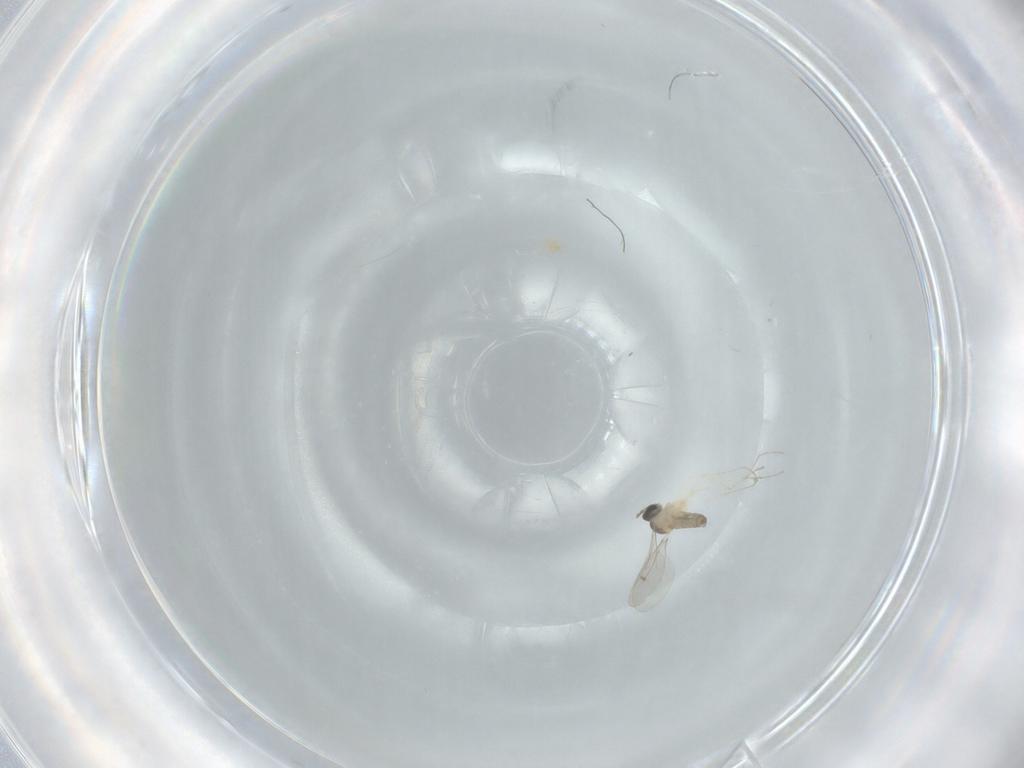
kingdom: Animalia
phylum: Arthropoda
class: Insecta
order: Diptera
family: Cecidomyiidae
